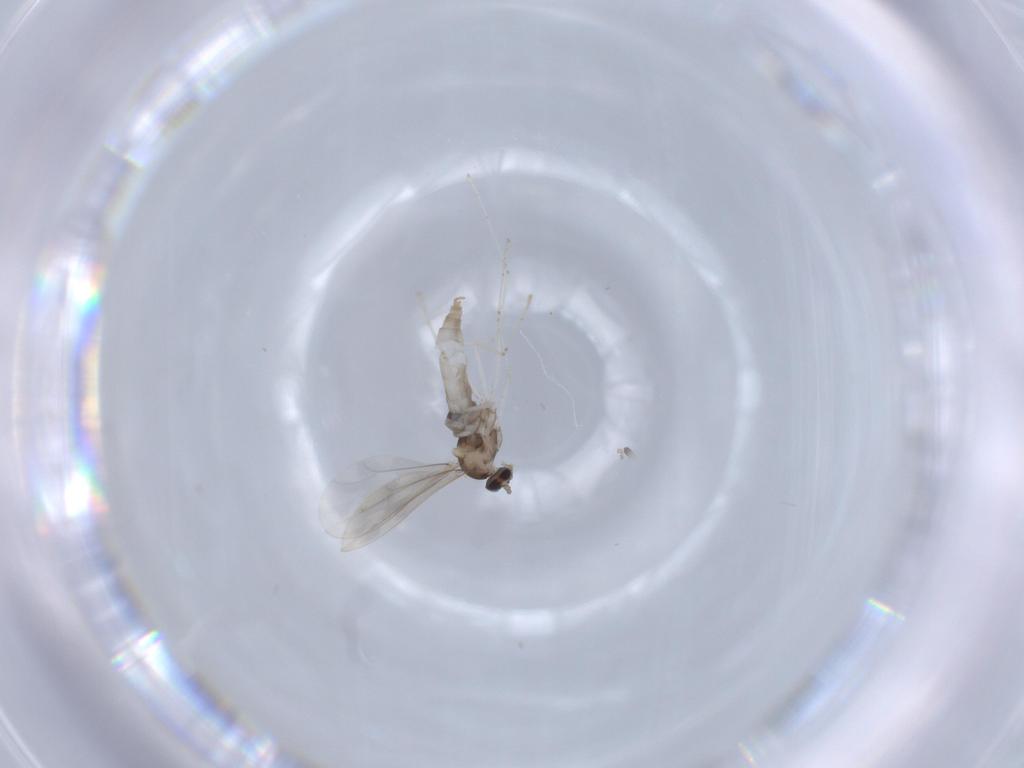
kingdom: Animalia
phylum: Arthropoda
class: Insecta
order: Diptera
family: Cecidomyiidae
